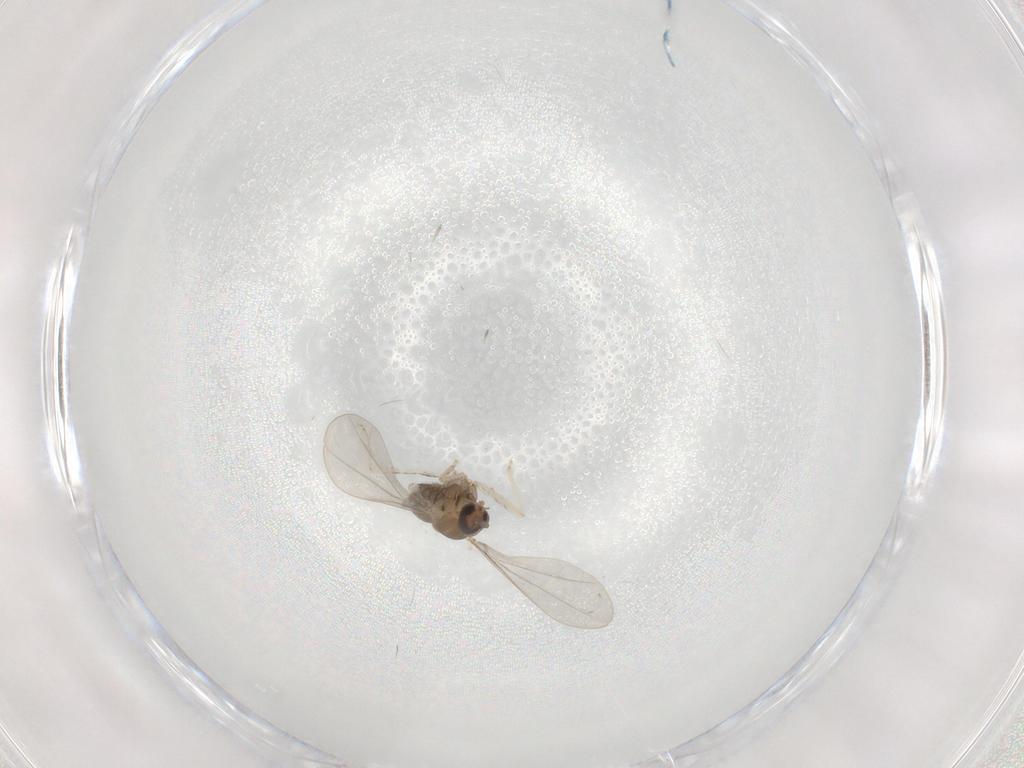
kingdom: Animalia
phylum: Arthropoda
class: Insecta
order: Diptera
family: Cecidomyiidae
